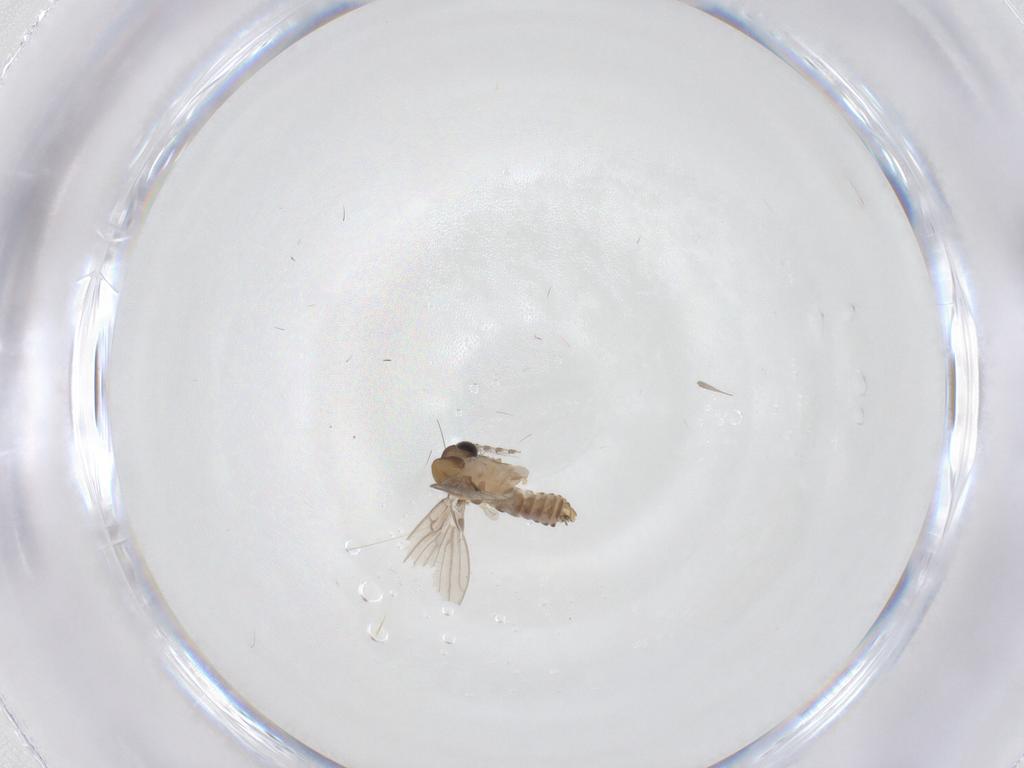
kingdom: Animalia
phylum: Arthropoda
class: Insecta
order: Diptera
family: Psychodidae
